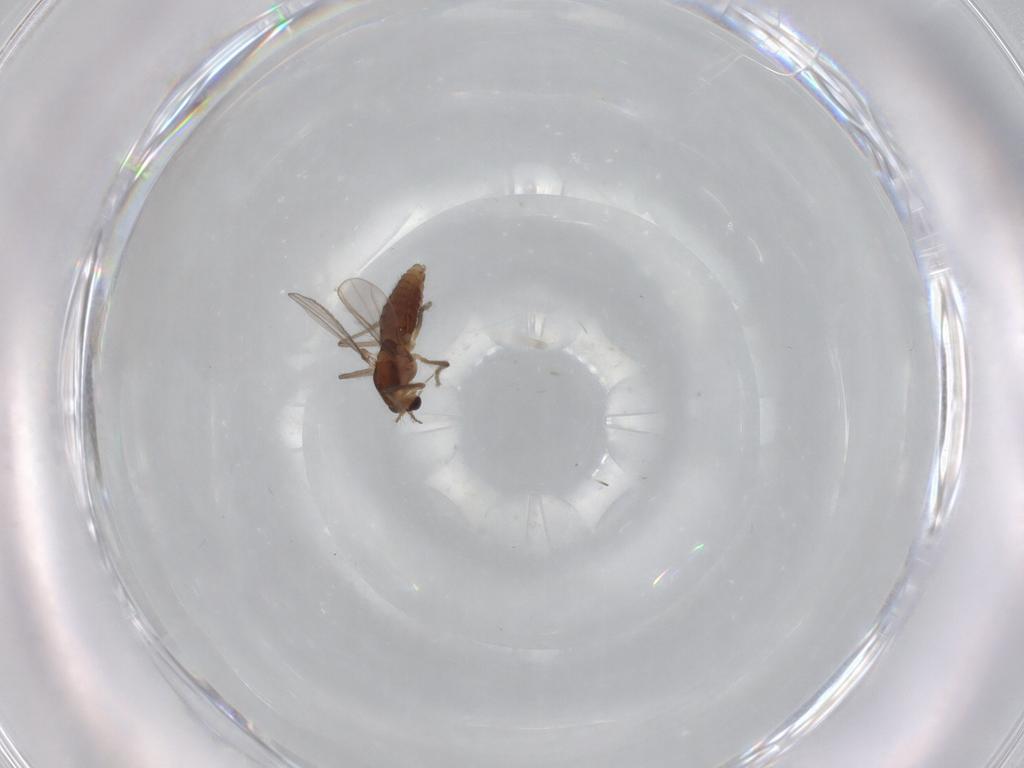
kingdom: Animalia
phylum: Arthropoda
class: Insecta
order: Diptera
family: Chironomidae
